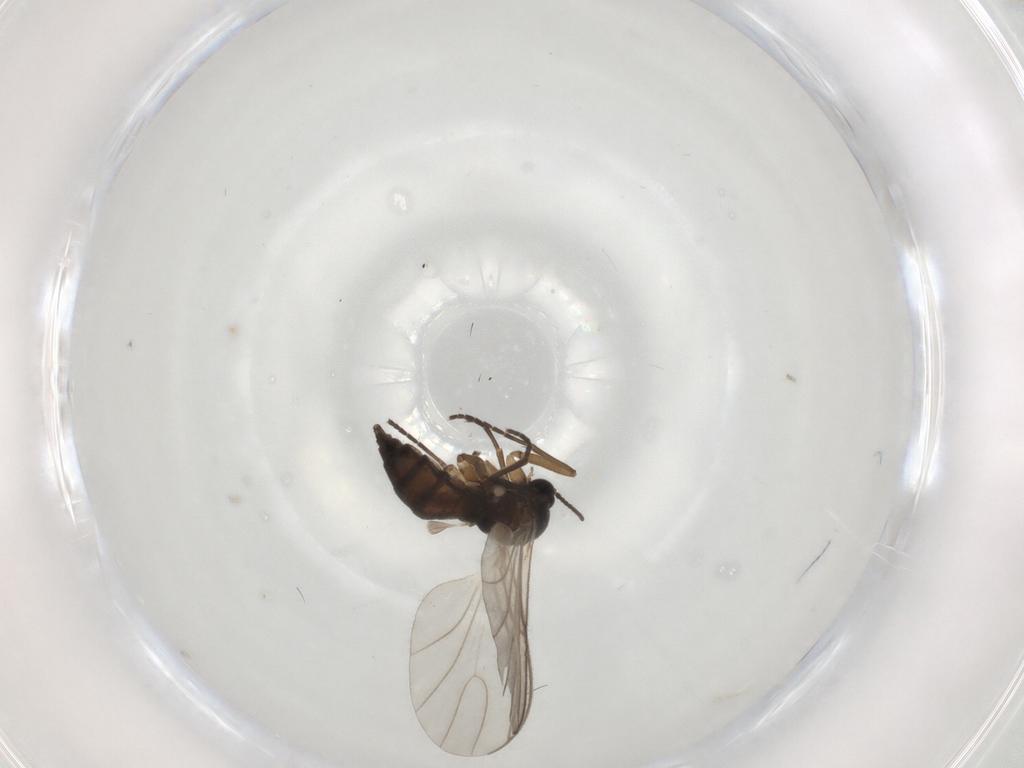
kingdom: Animalia
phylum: Arthropoda
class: Insecta
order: Diptera
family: Sciaridae
